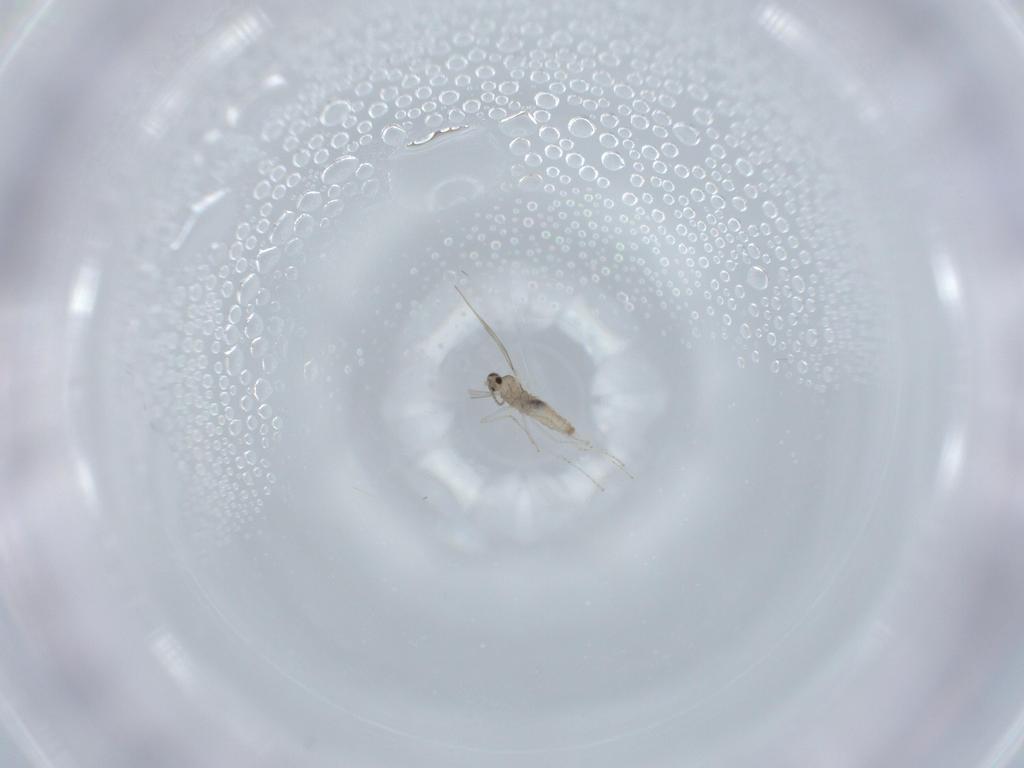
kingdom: Animalia
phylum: Arthropoda
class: Insecta
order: Diptera
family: Cecidomyiidae
